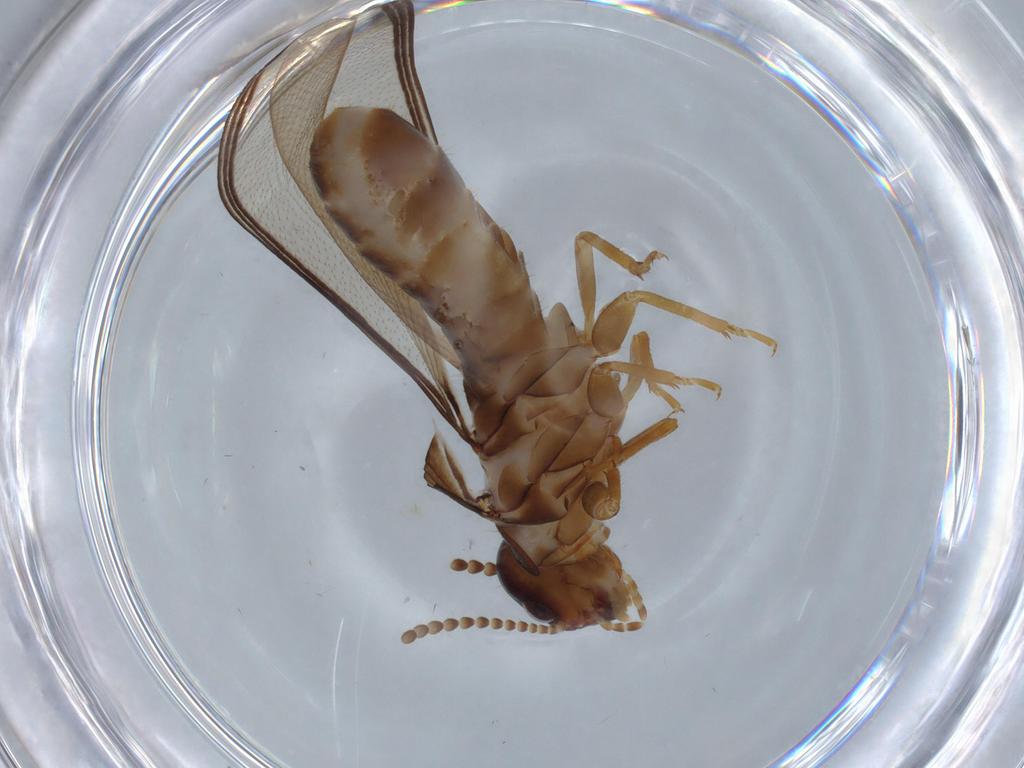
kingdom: Animalia
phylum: Arthropoda
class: Insecta
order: Blattodea
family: Kalotermitidae
